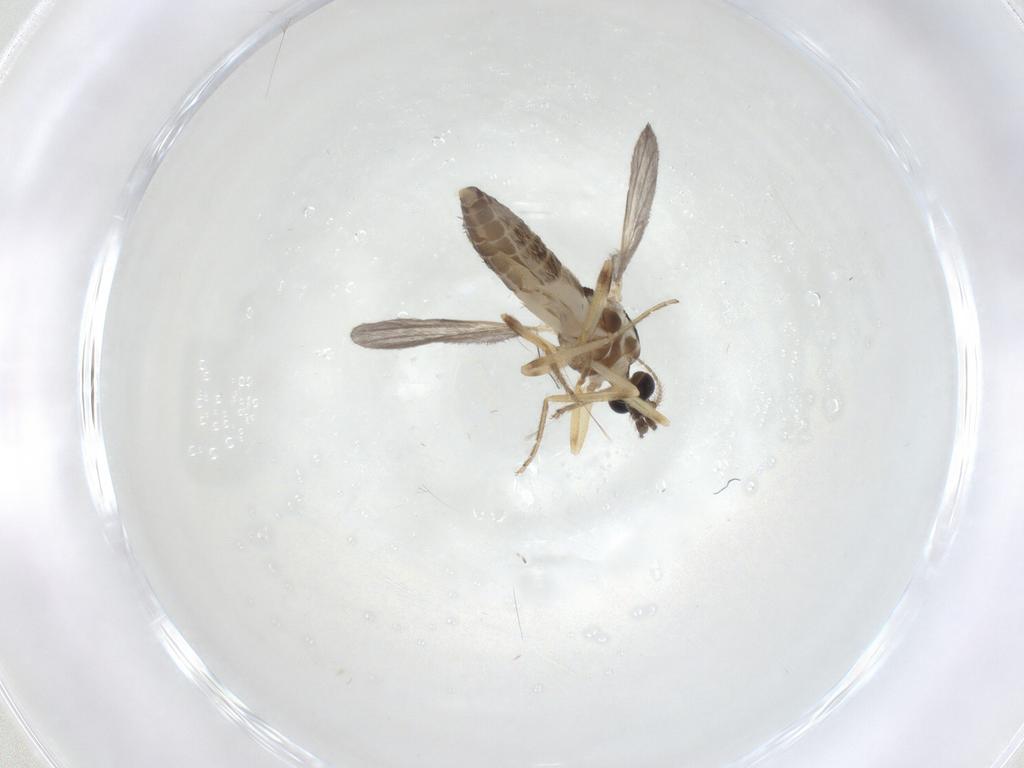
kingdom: Animalia
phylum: Arthropoda
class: Insecta
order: Diptera
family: Ceratopogonidae
